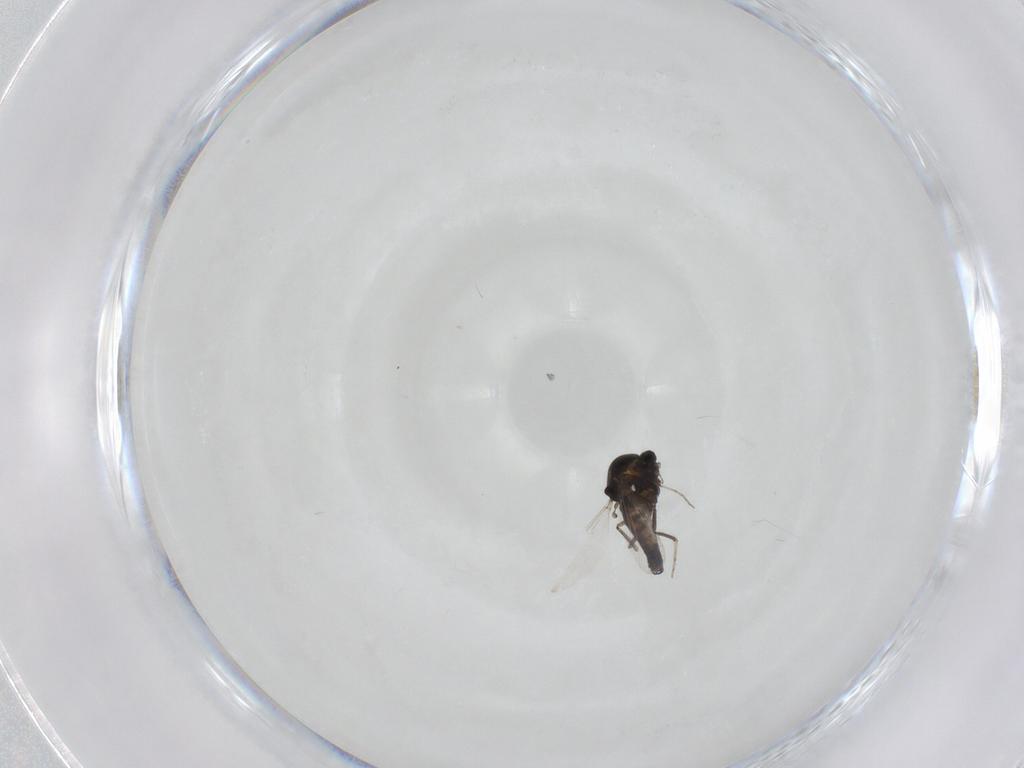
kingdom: Animalia
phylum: Arthropoda
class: Insecta
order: Diptera
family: Ceratopogonidae
